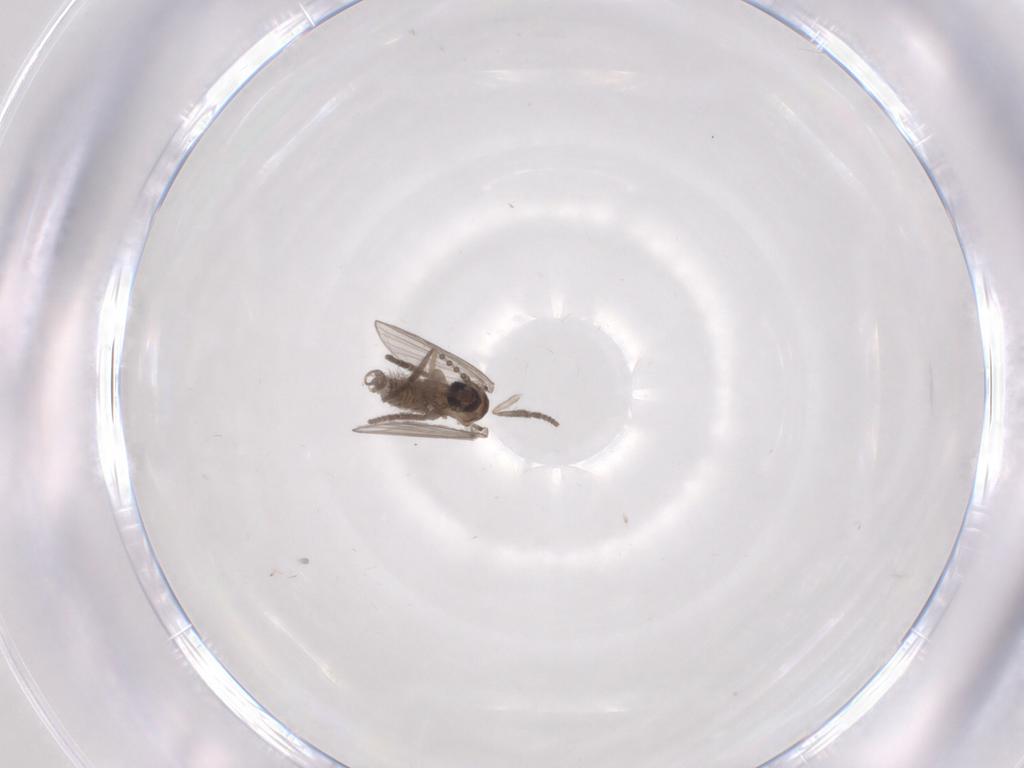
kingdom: Animalia
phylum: Arthropoda
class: Insecta
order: Diptera
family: Psychodidae
